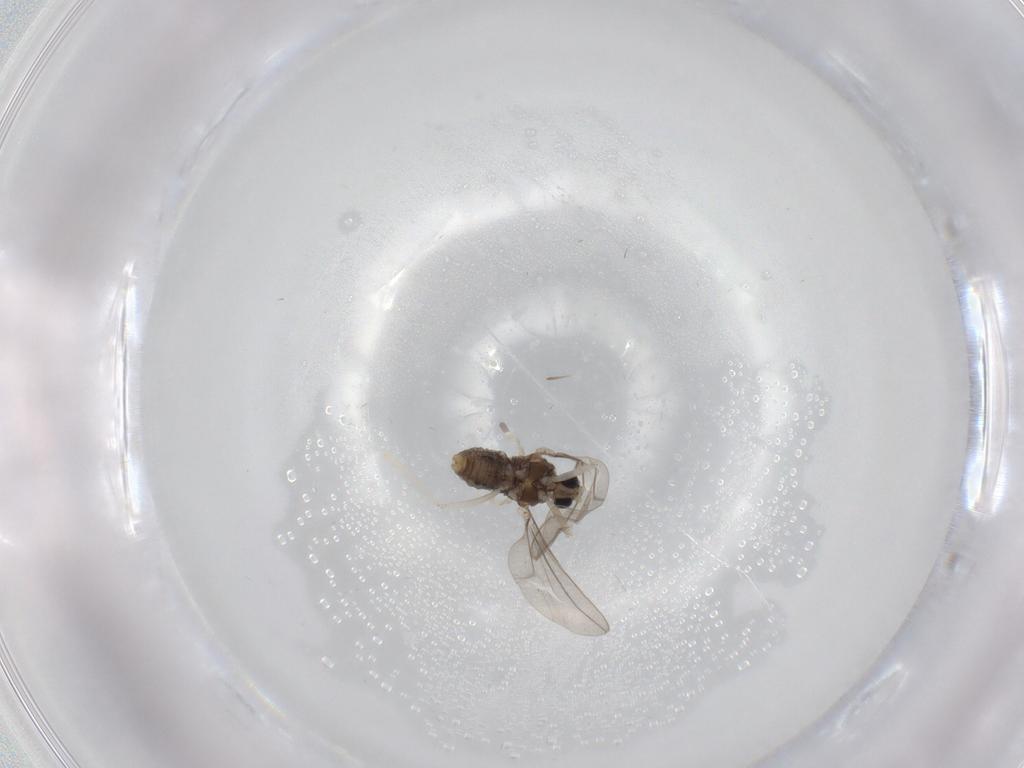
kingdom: Animalia
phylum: Arthropoda
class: Insecta
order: Diptera
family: Cecidomyiidae
